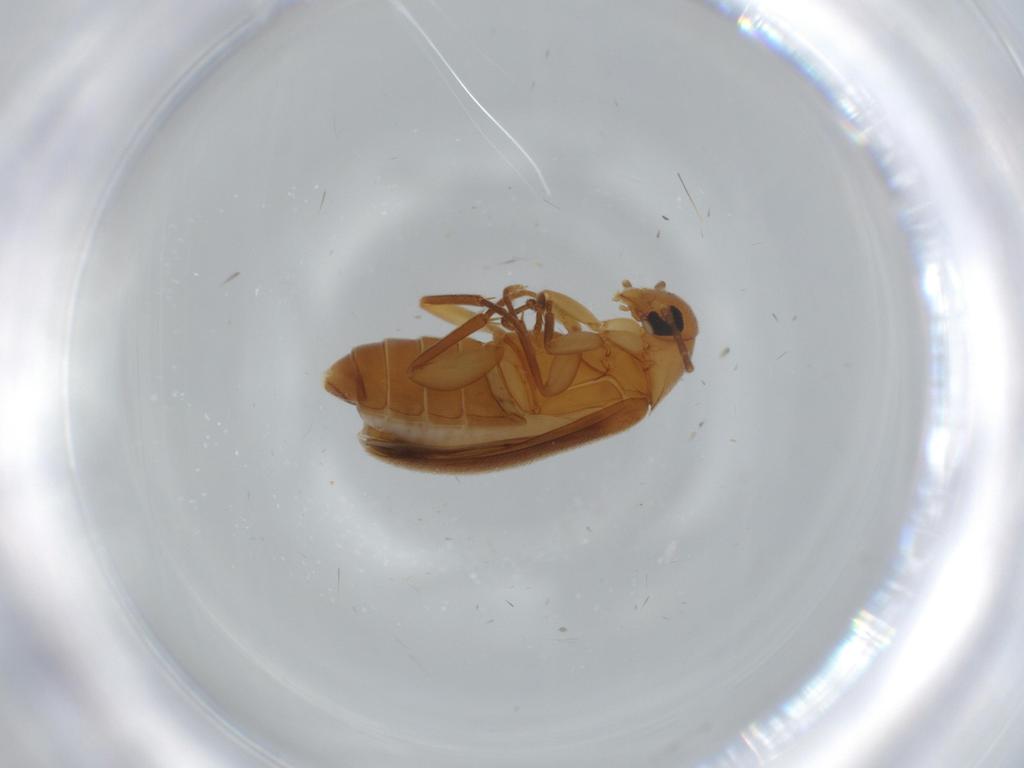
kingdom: Animalia
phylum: Arthropoda
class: Insecta
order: Coleoptera
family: Scraptiidae
